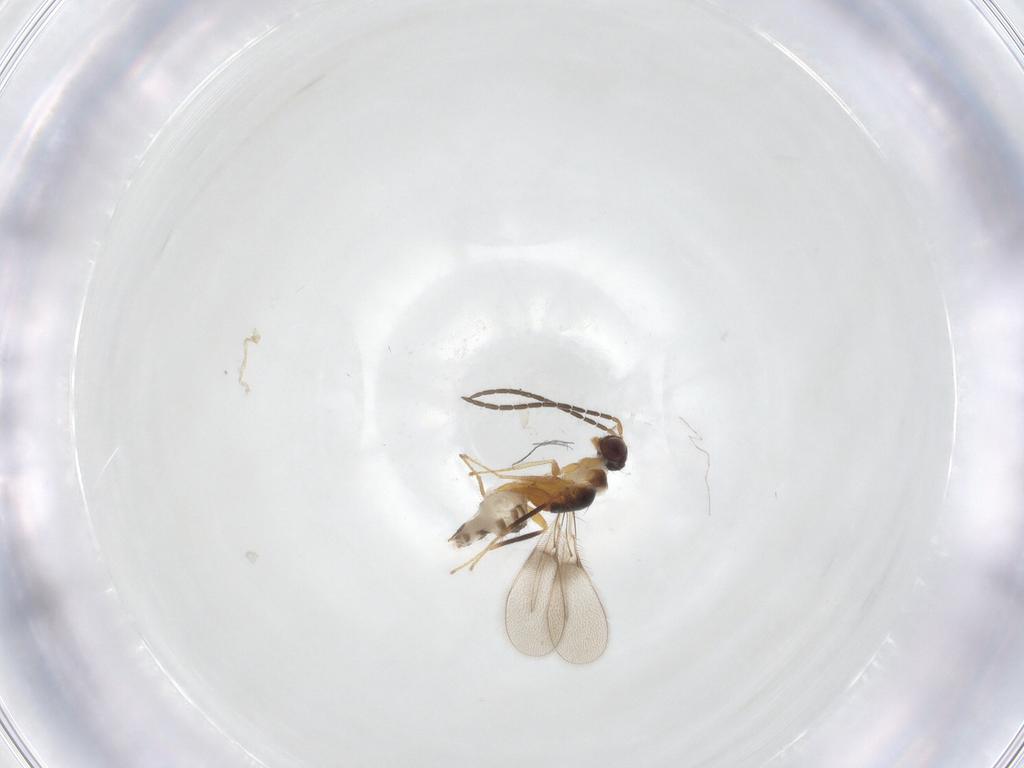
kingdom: Animalia
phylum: Arthropoda
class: Insecta
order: Hymenoptera
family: Braconidae
